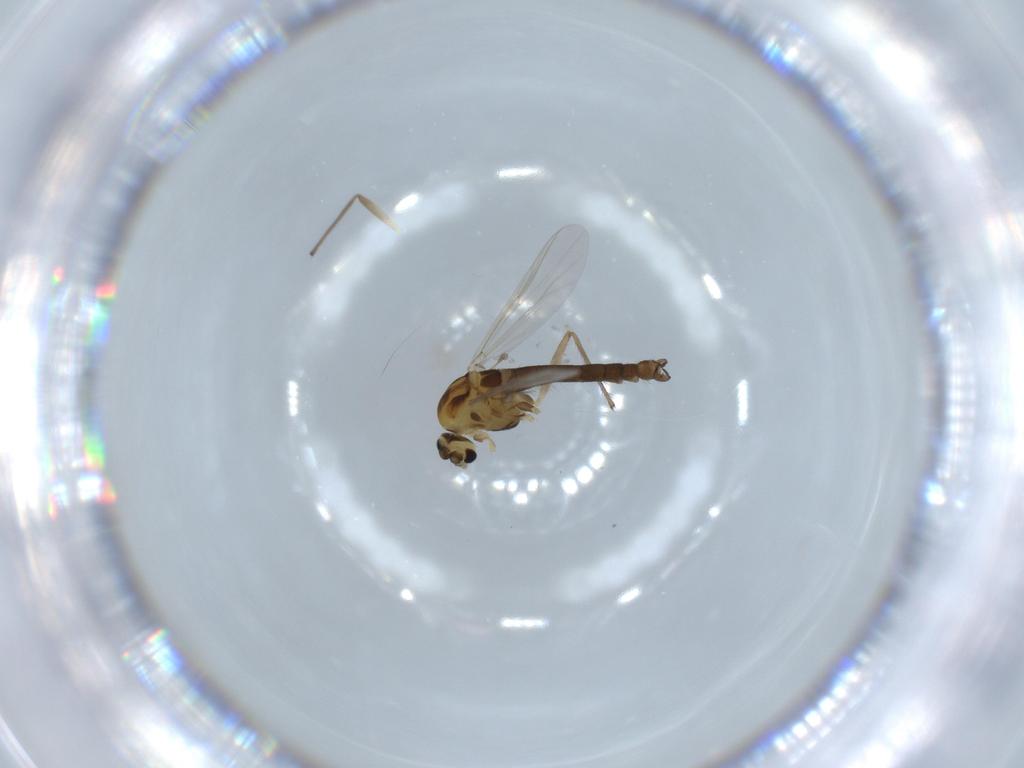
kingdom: Animalia
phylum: Arthropoda
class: Insecta
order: Diptera
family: Chironomidae
